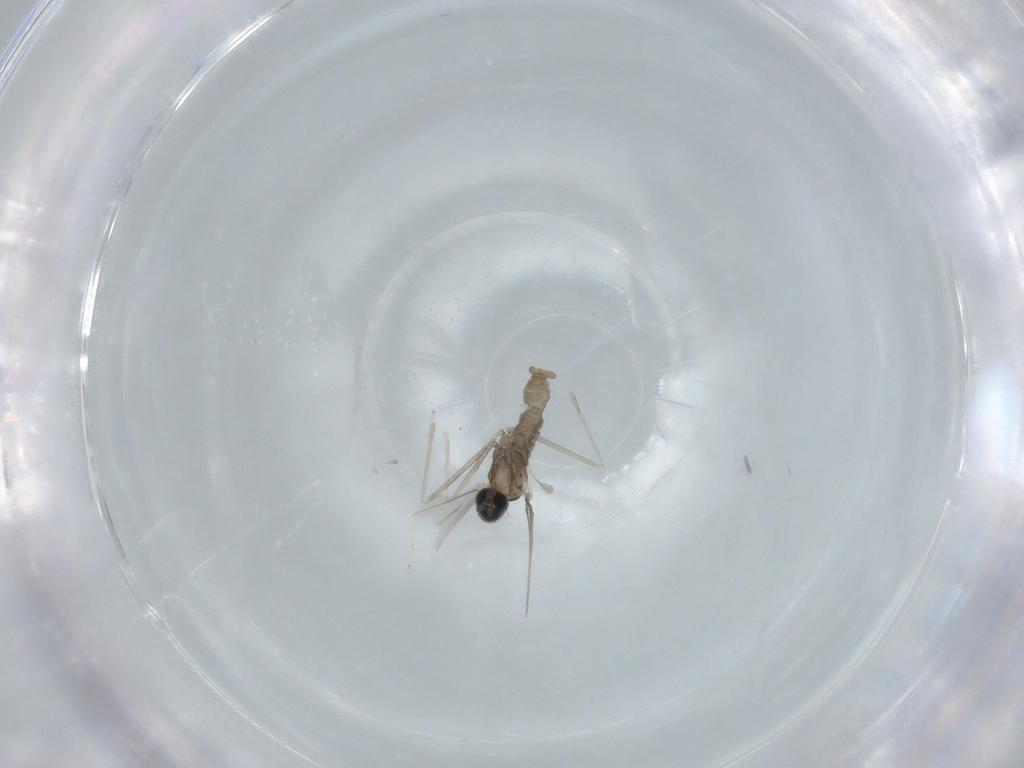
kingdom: Animalia
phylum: Arthropoda
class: Insecta
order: Diptera
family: Cecidomyiidae
